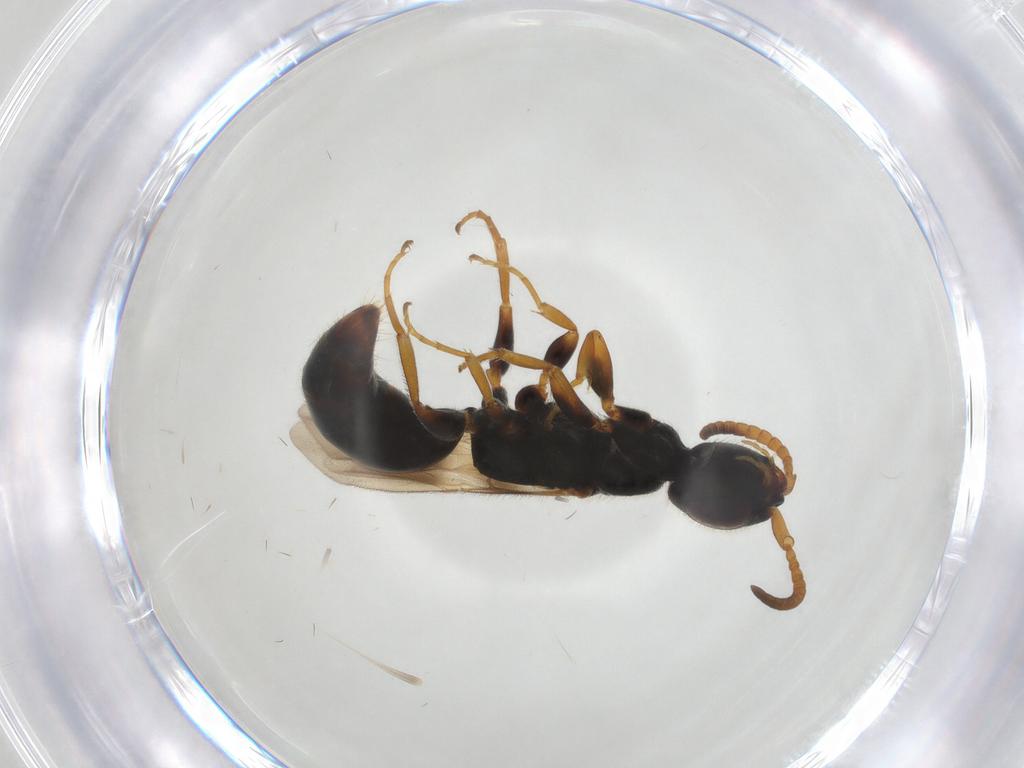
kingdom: Animalia
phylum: Arthropoda
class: Insecta
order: Hymenoptera
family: Bethylidae
